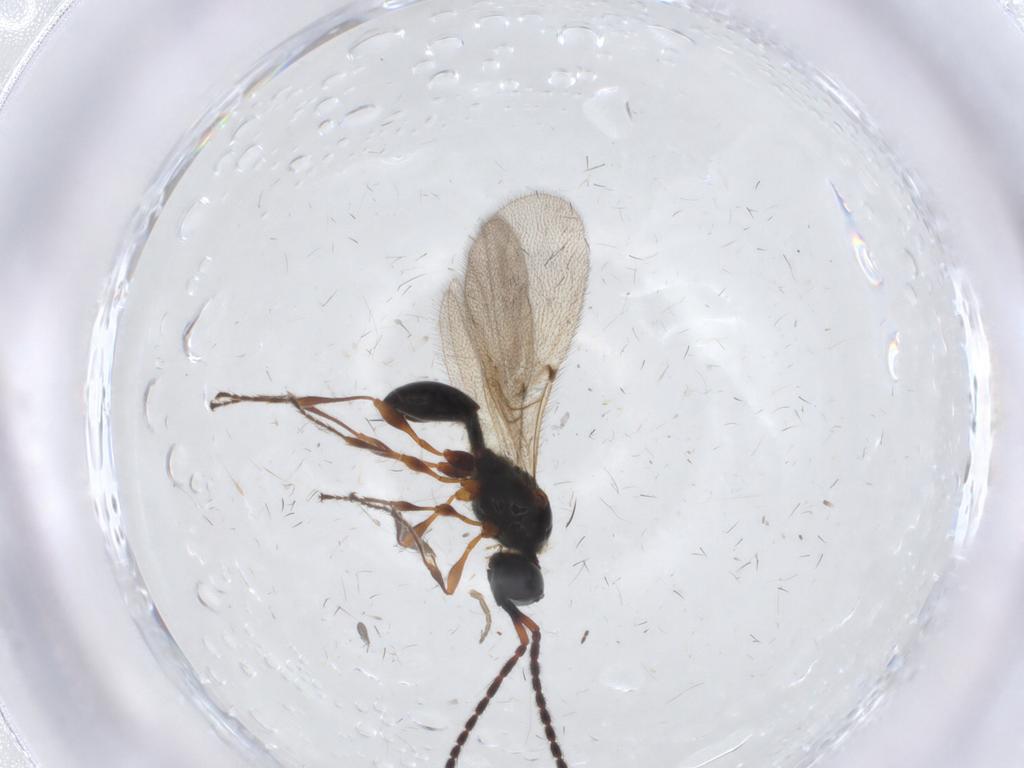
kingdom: Animalia
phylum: Arthropoda
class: Insecta
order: Hymenoptera
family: Diapriidae
